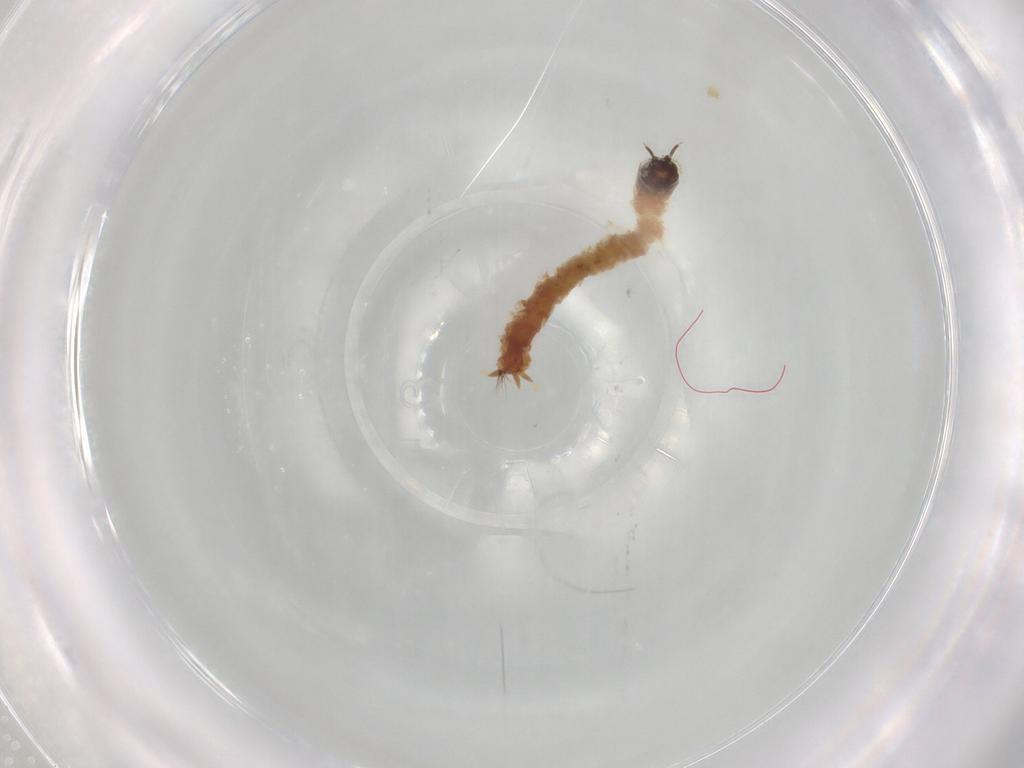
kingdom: Animalia
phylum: Arthropoda
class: Insecta
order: Diptera
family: Chironomidae
